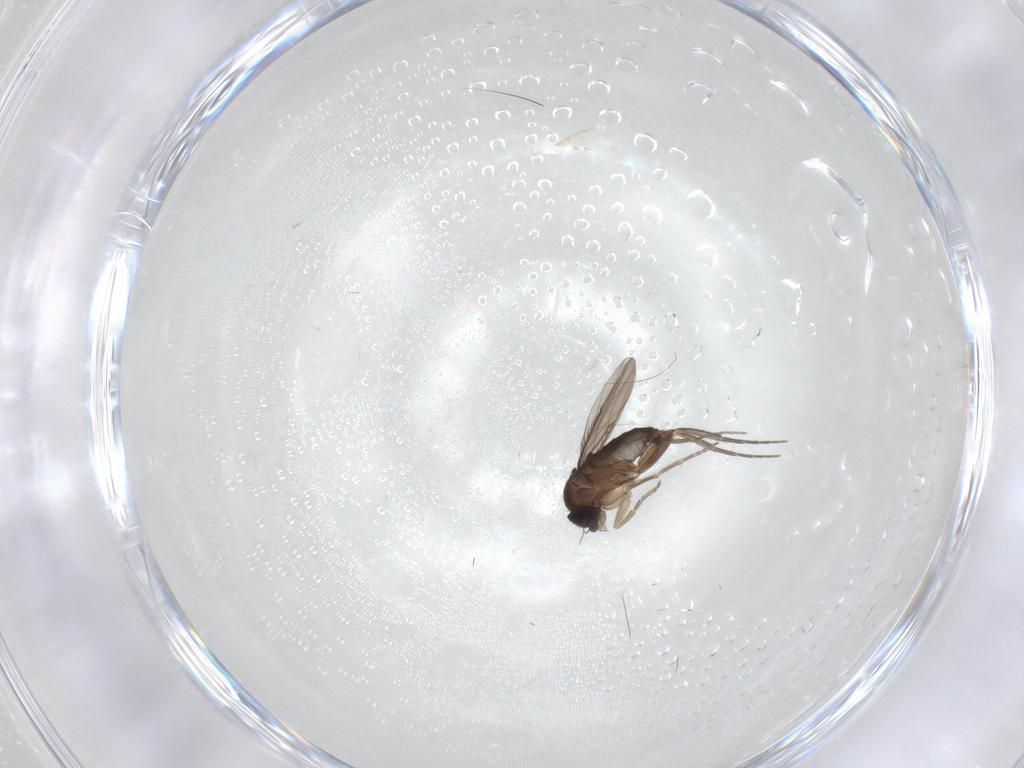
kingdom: Animalia
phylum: Arthropoda
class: Insecta
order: Diptera
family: Phoridae
